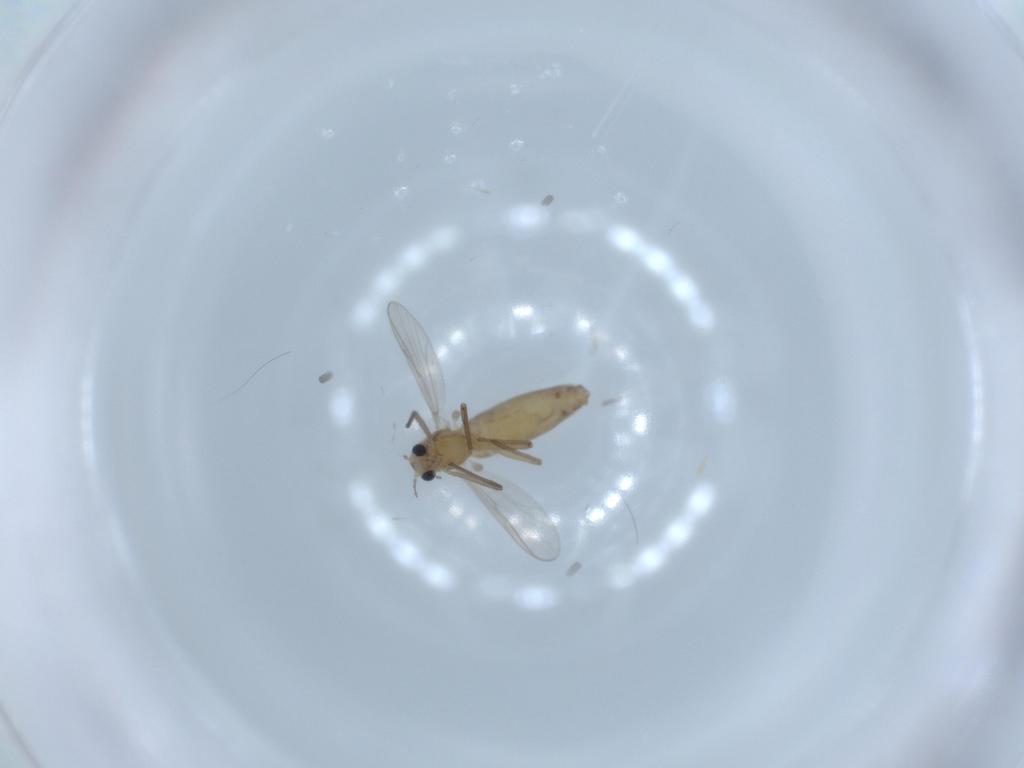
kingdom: Animalia
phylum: Arthropoda
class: Insecta
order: Diptera
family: Chironomidae
